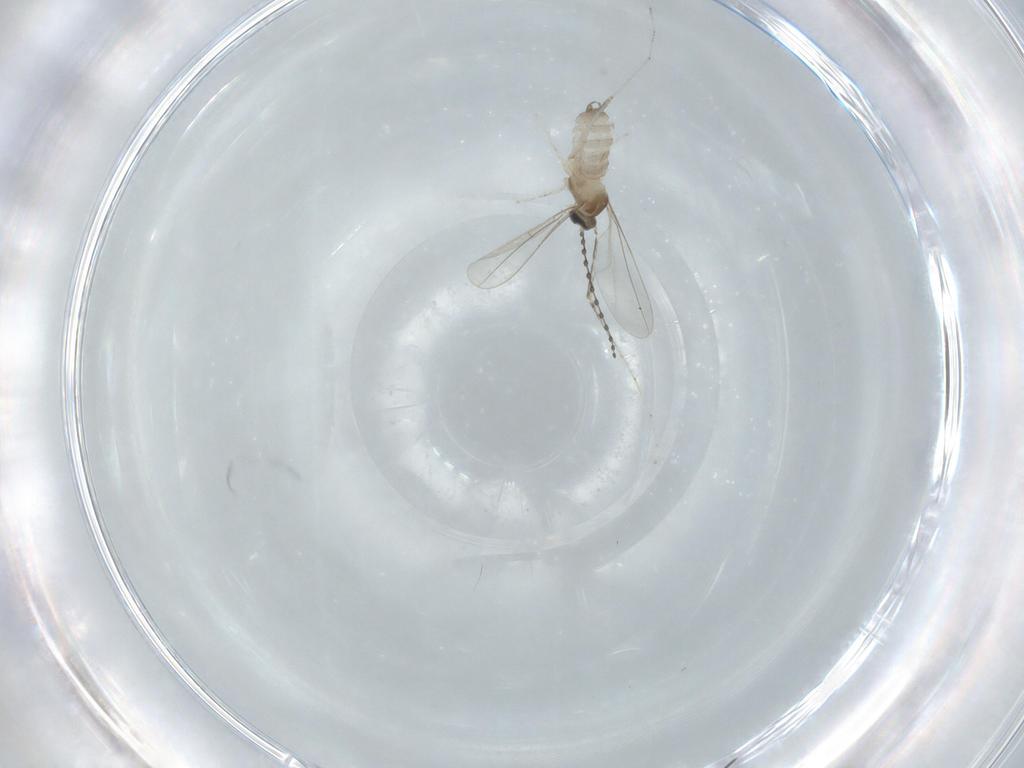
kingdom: Animalia
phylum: Arthropoda
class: Insecta
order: Diptera
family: Cecidomyiidae
